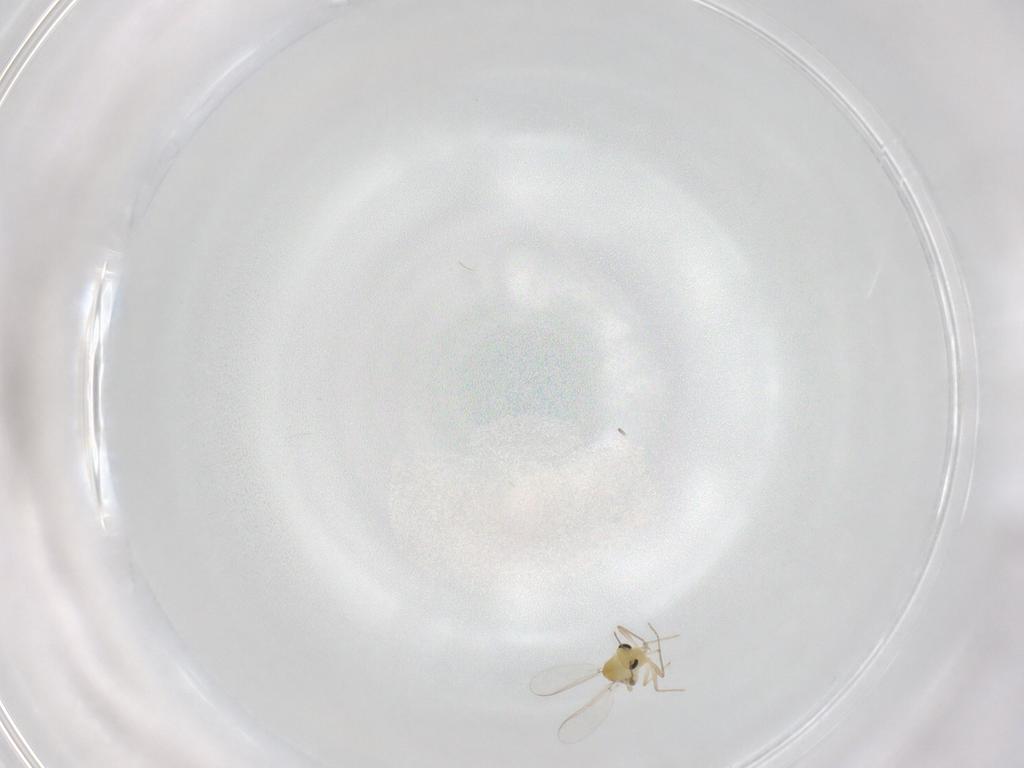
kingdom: Animalia
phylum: Arthropoda
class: Insecta
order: Diptera
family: Chironomidae
